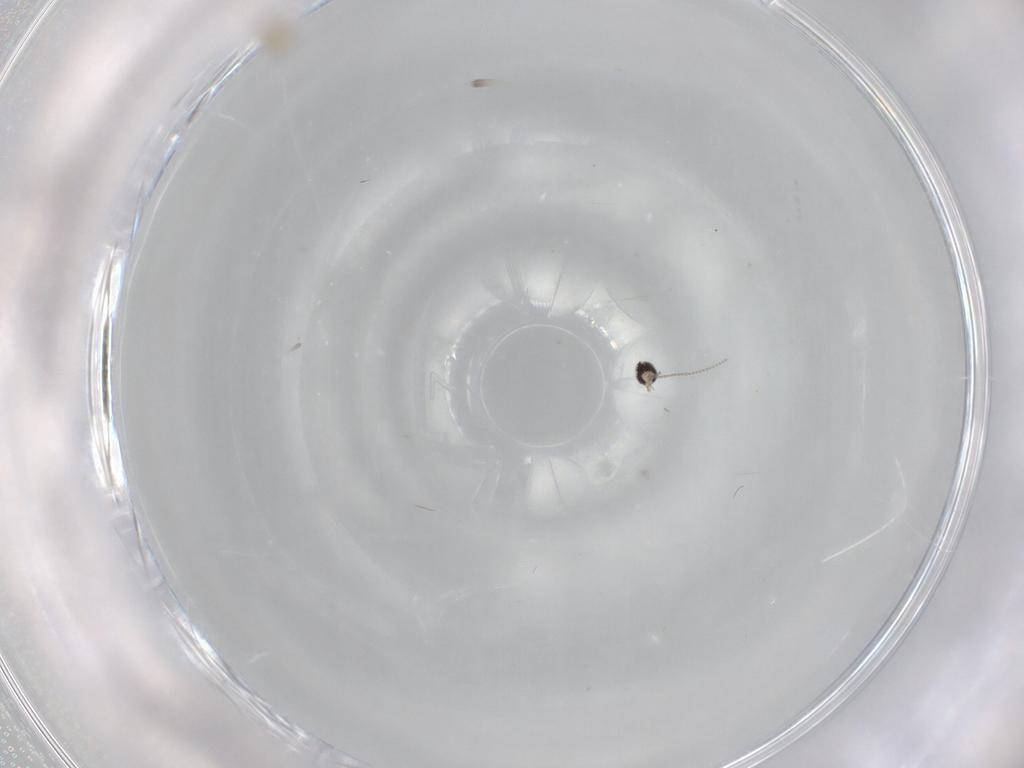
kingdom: Animalia
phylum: Arthropoda
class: Insecta
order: Diptera
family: Cecidomyiidae
